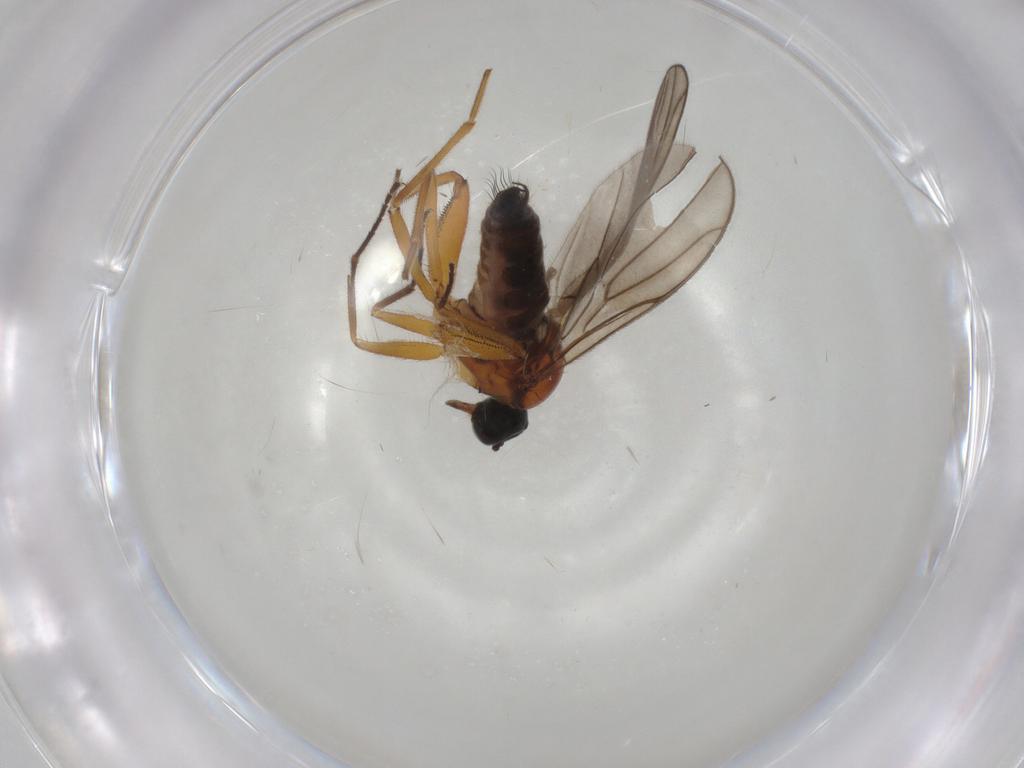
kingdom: Animalia
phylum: Arthropoda
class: Insecta
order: Diptera
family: Hybotidae
